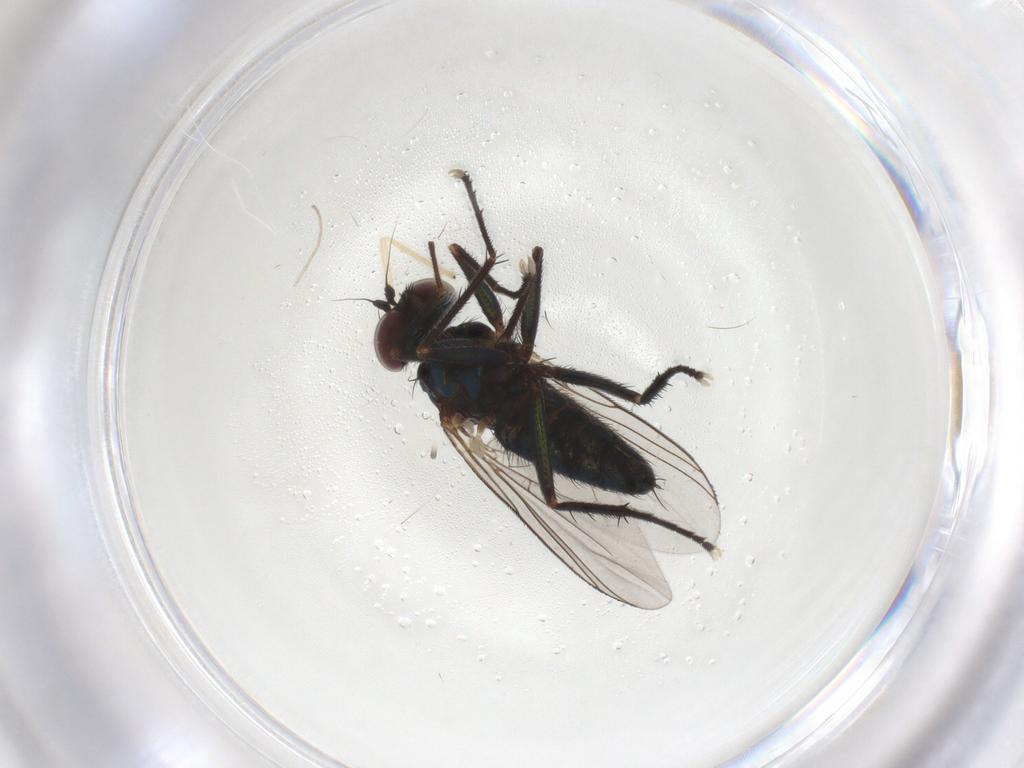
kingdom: Animalia
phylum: Arthropoda
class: Insecta
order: Diptera
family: Dolichopodidae
